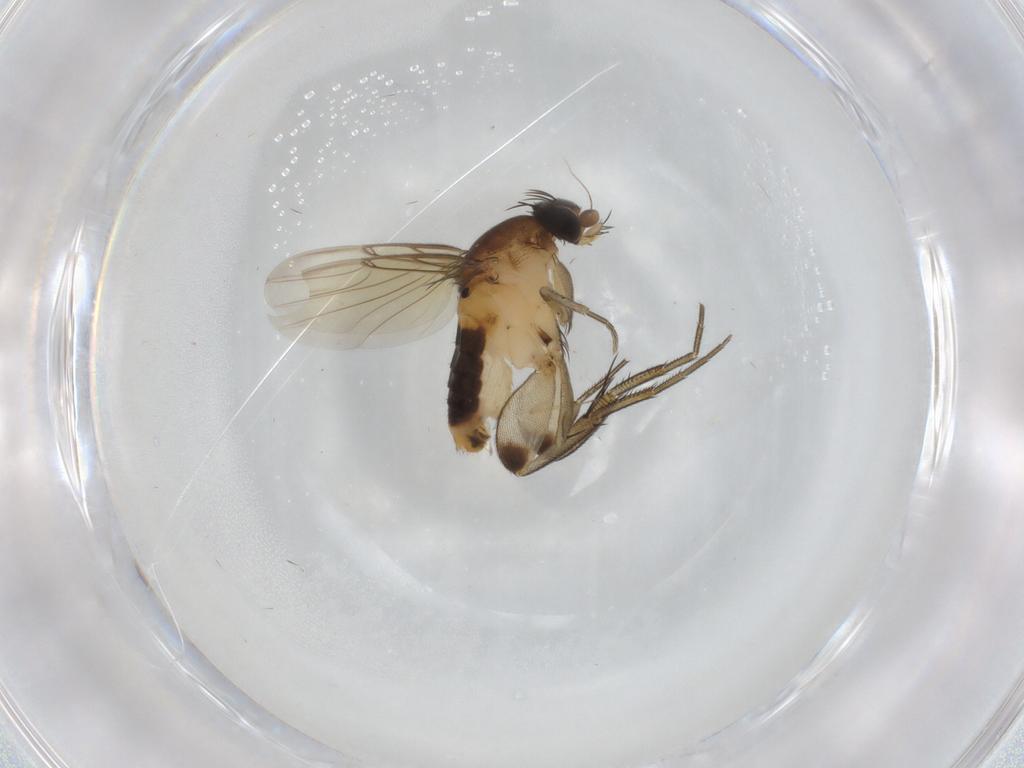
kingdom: Animalia
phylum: Arthropoda
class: Insecta
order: Diptera
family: Phoridae
